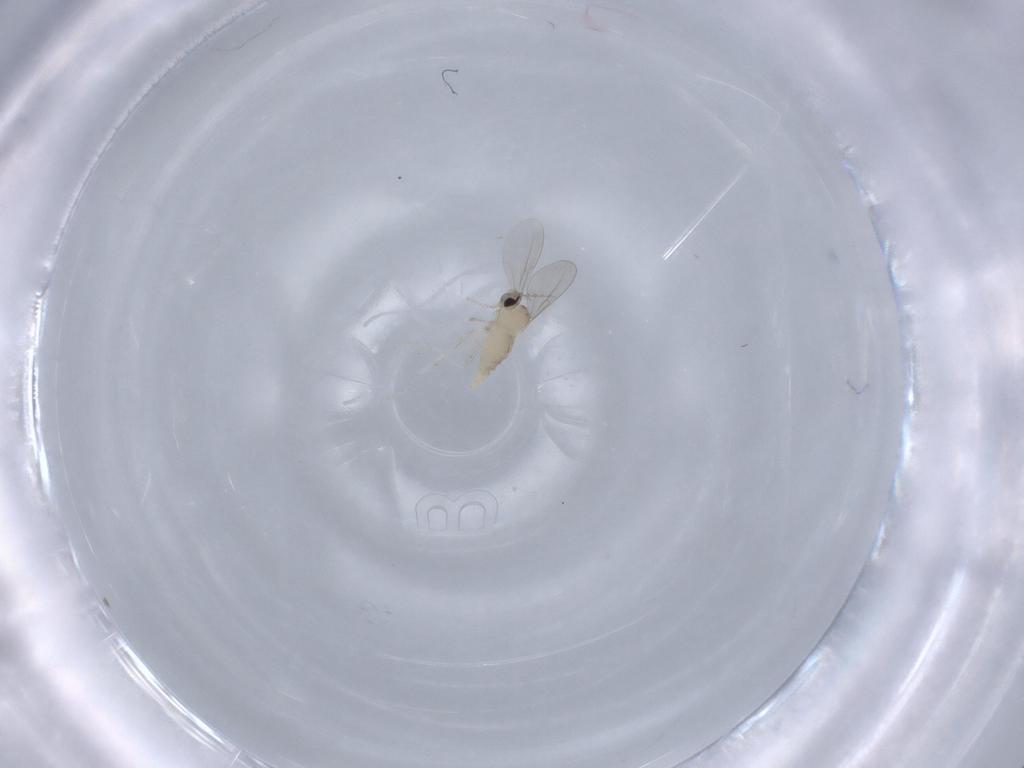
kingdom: Animalia
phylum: Arthropoda
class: Insecta
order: Diptera
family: Cecidomyiidae
